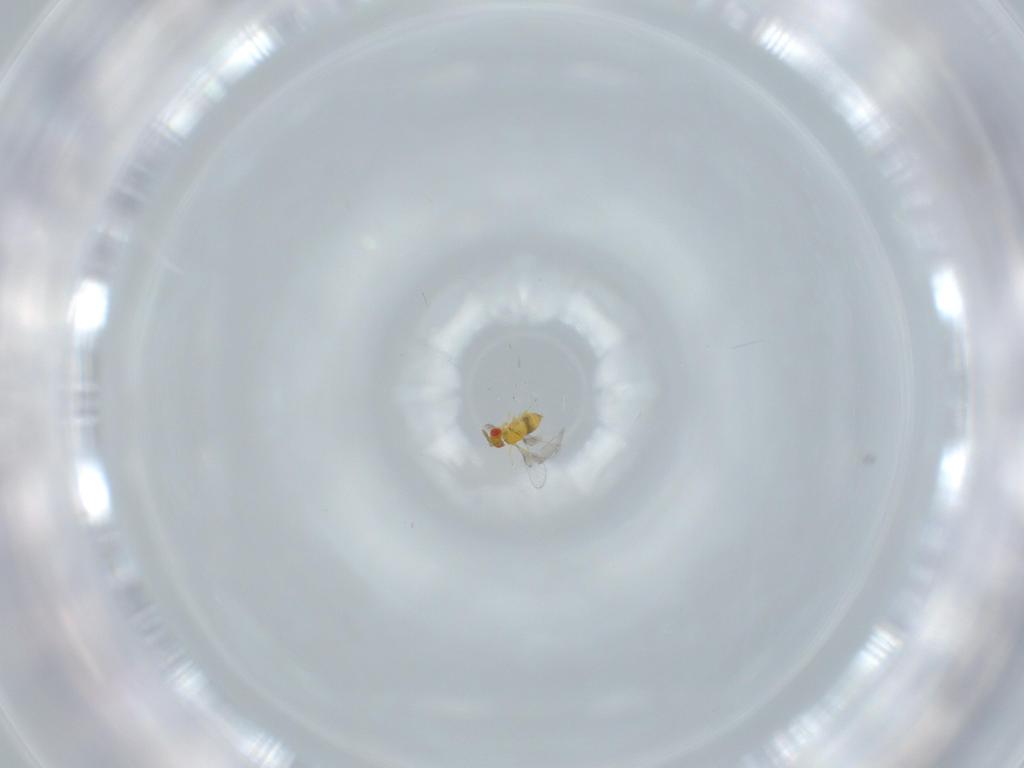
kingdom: Animalia
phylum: Arthropoda
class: Insecta
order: Hymenoptera
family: Trichogrammatidae
